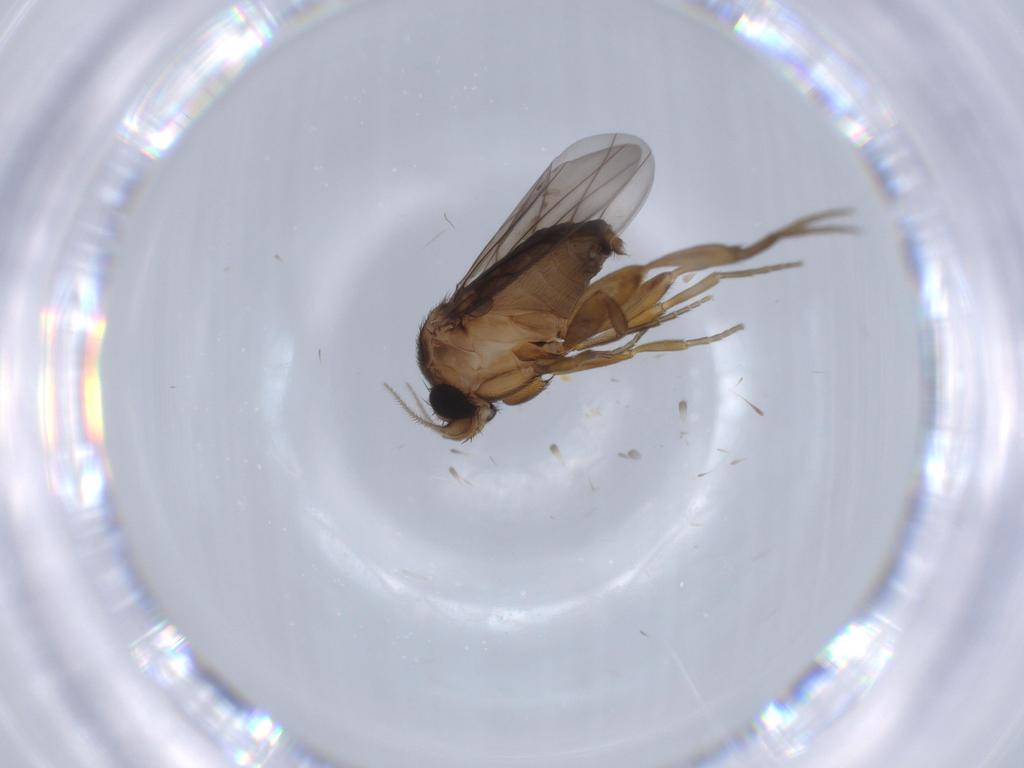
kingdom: Animalia
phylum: Arthropoda
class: Insecta
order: Diptera
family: Phoridae
